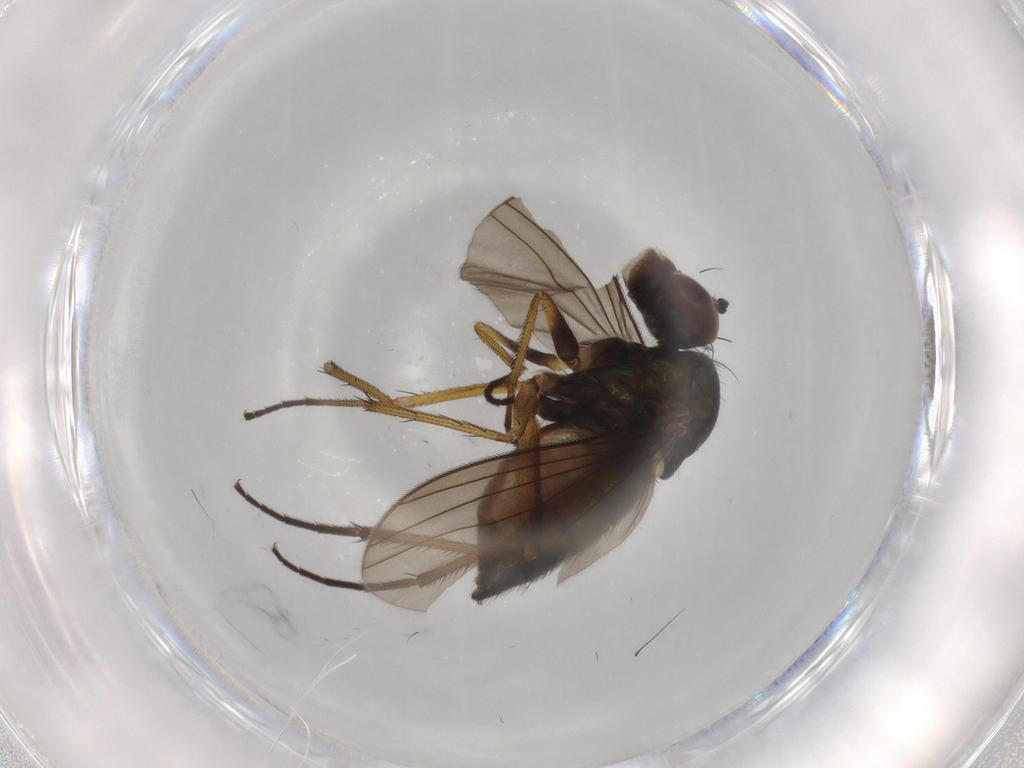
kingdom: Animalia
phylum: Arthropoda
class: Insecta
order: Diptera
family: Dolichopodidae
